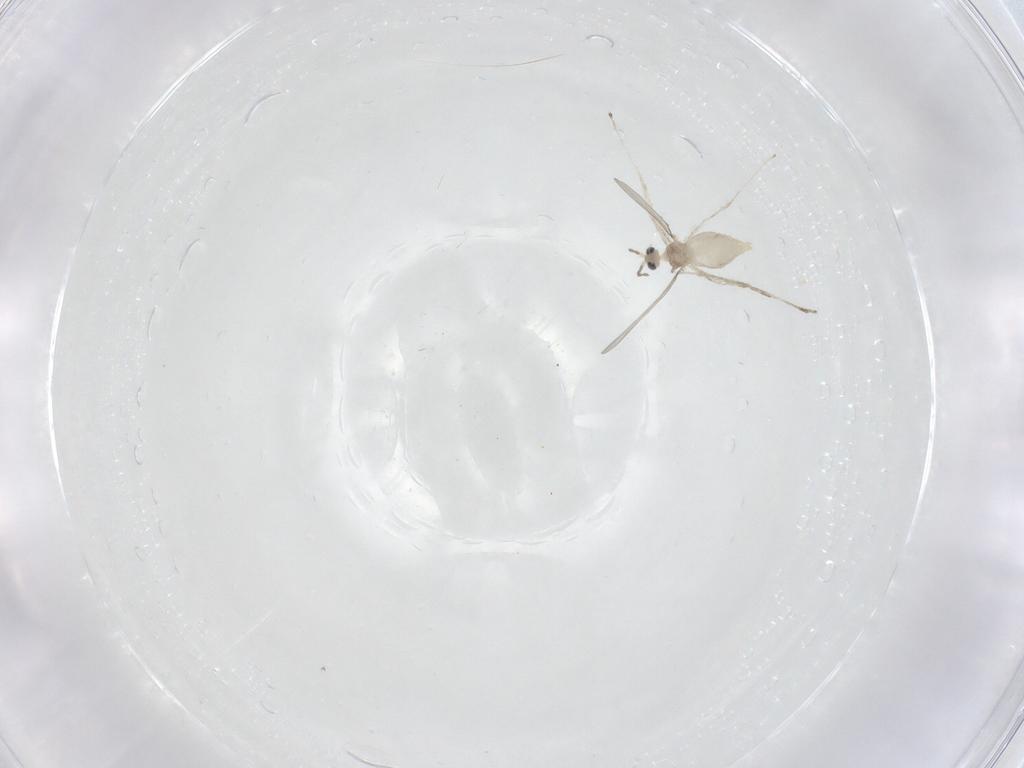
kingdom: Animalia
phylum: Arthropoda
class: Insecta
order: Diptera
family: Cecidomyiidae
